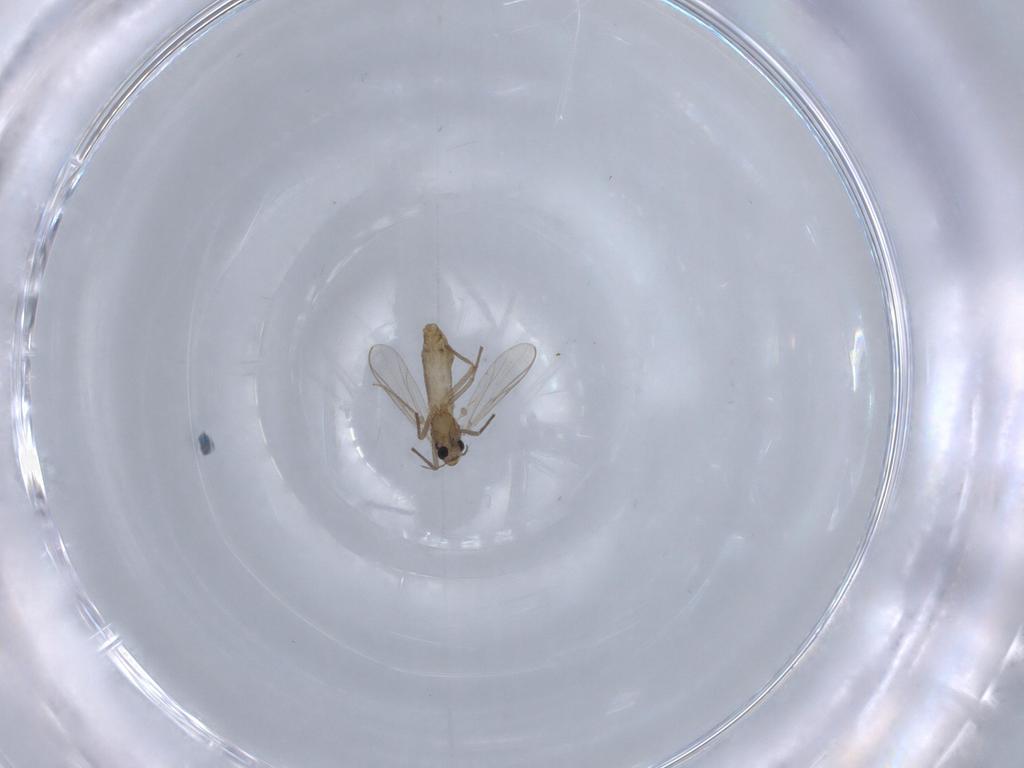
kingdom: Animalia
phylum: Arthropoda
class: Insecta
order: Diptera
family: Chironomidae
